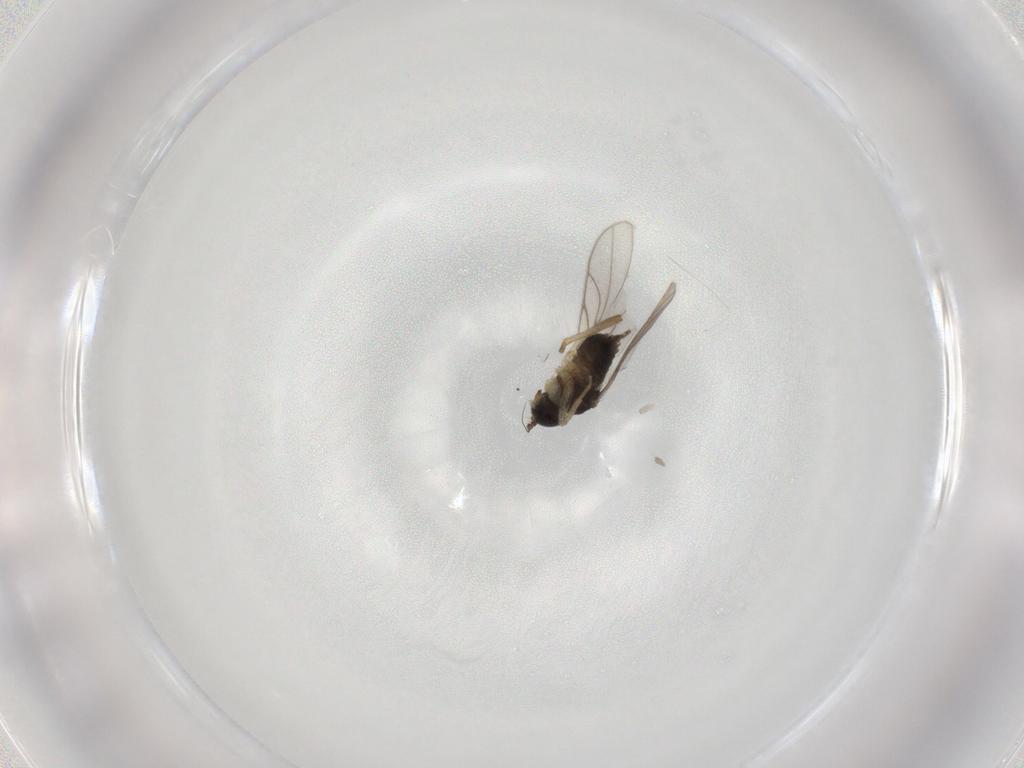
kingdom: Animalia
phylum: Arthropoda
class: Insecta
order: Diptera
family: Hybotidae
